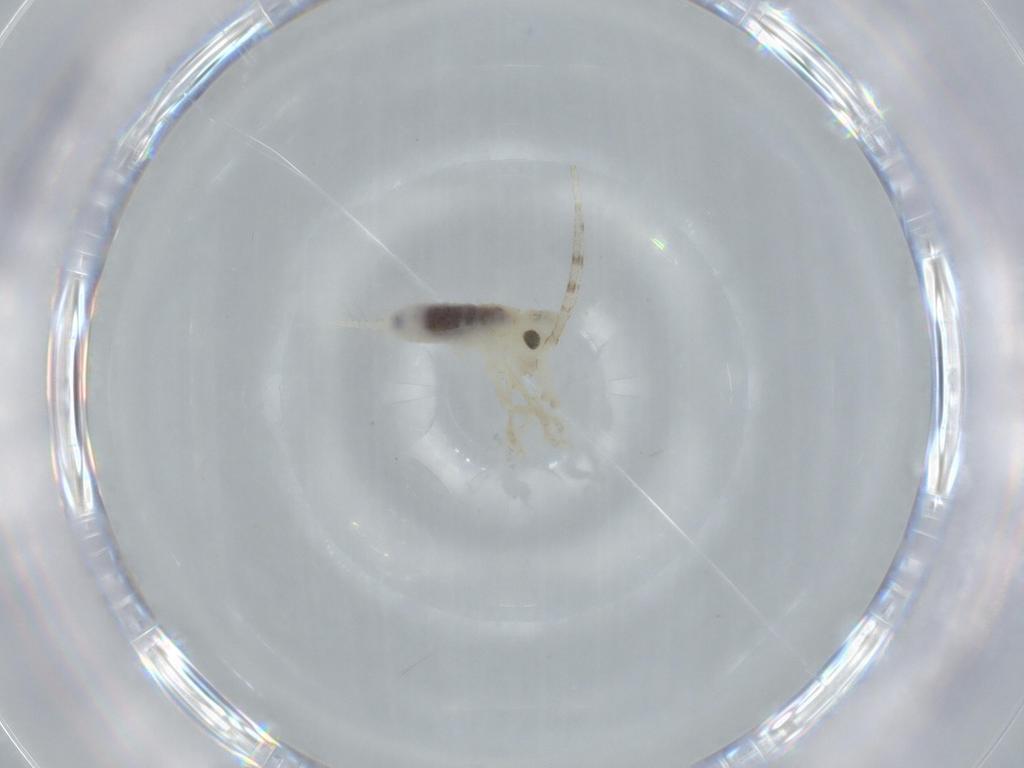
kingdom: Animalia
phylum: Arthropoda
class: Insecta
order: Orthoptera
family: Trigonidiidae
